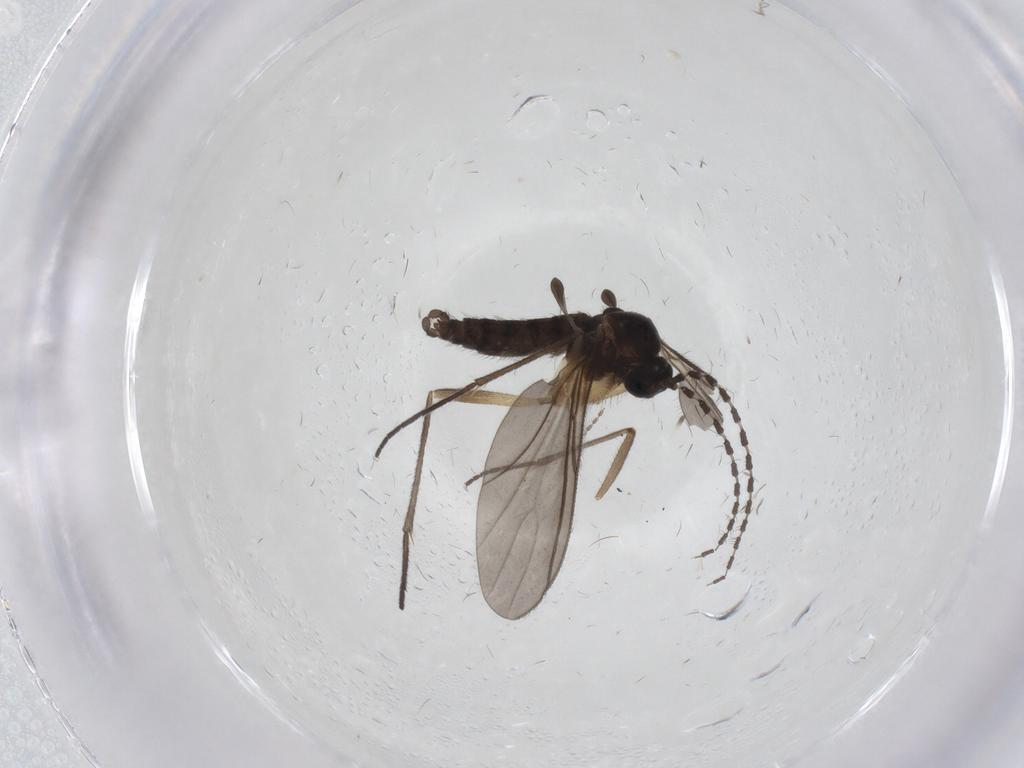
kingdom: Animalia
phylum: Arthropoda
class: Insecta
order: Diptera
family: Sciaridae
